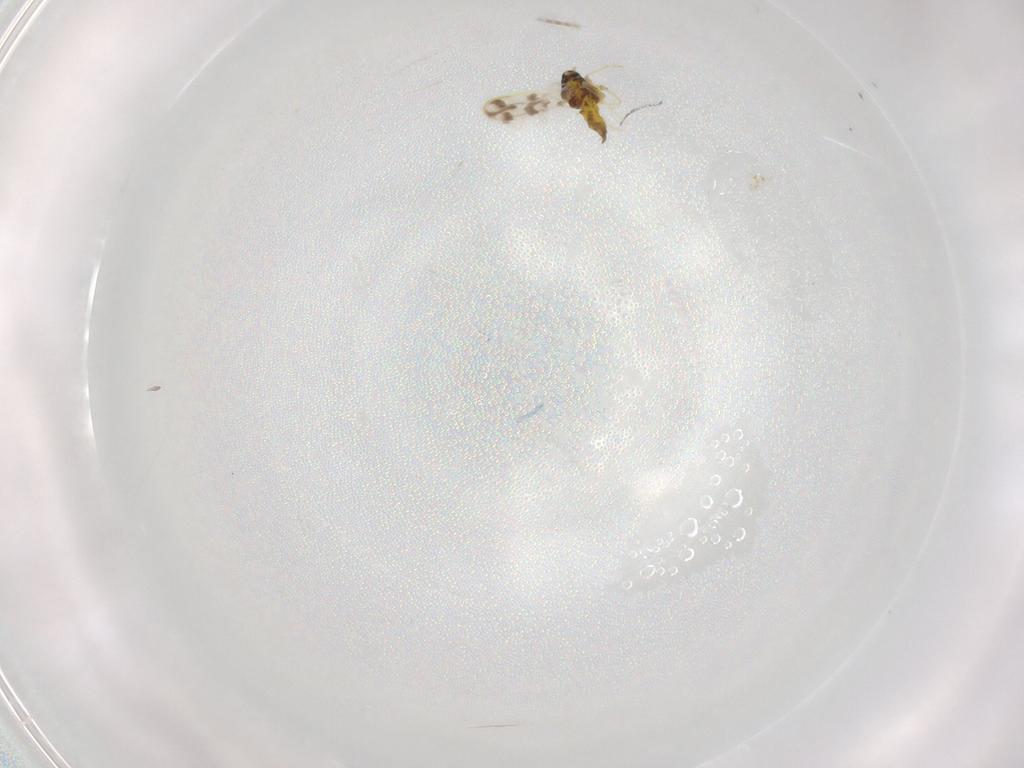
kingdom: Animalia
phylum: Arthropoda
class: Insecta
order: Hemiptera
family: Aleyrodidae
